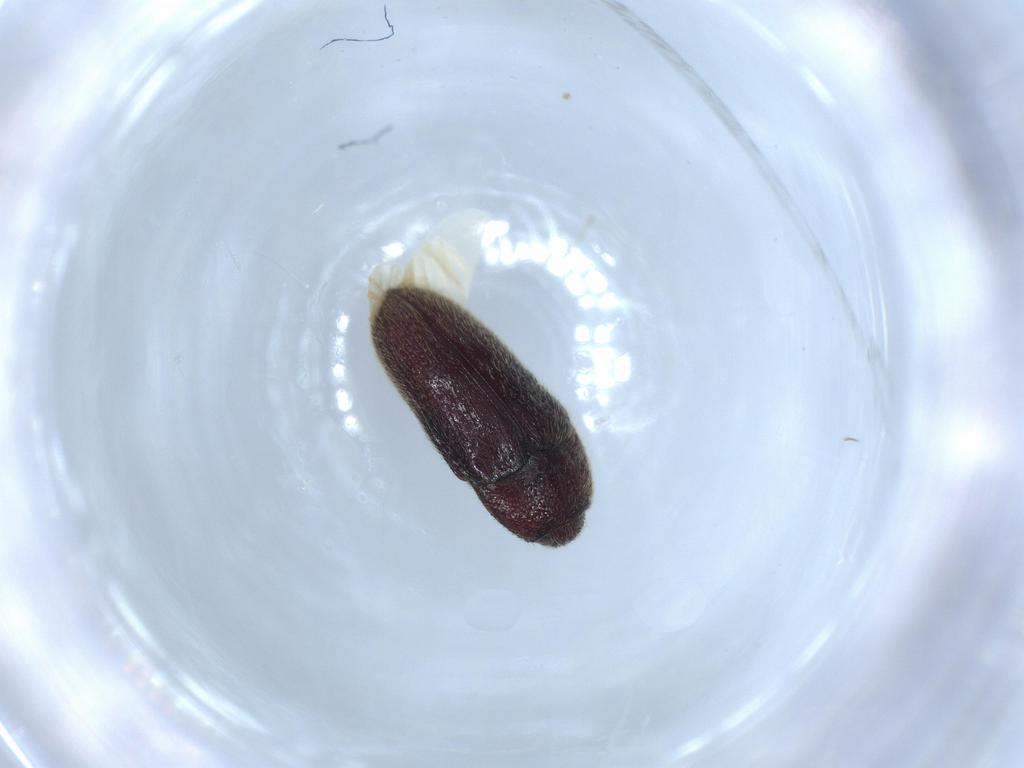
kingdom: Animalia
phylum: Arthropoda
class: Insecta
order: Coleoptera
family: Throscidae
